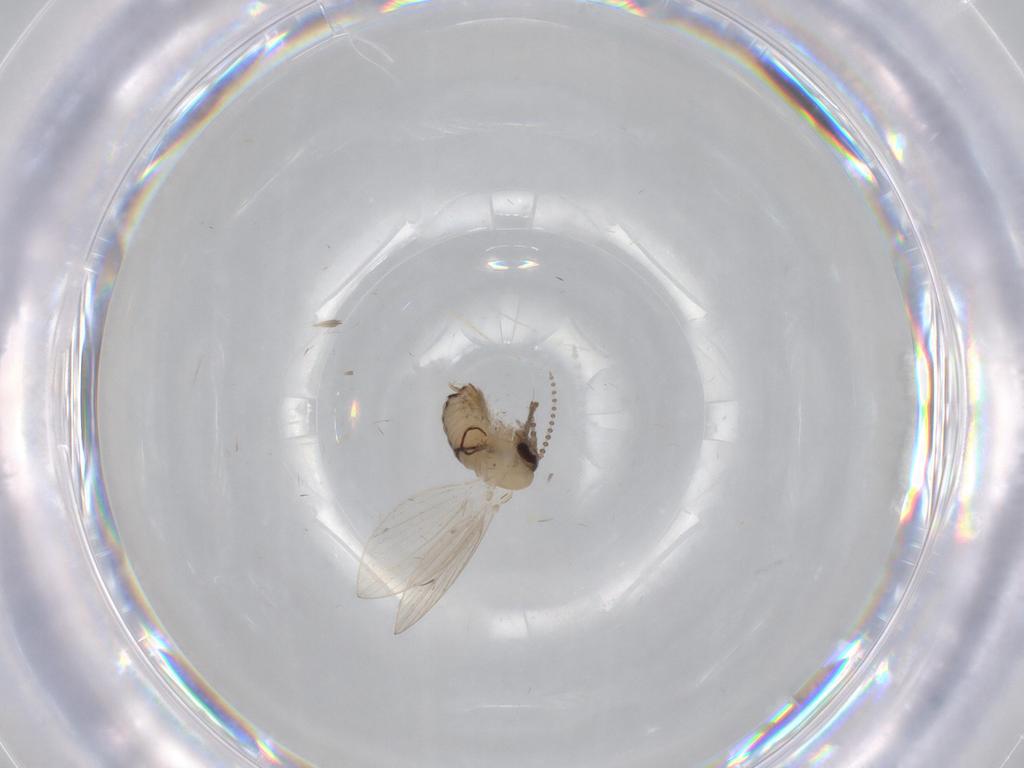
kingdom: Animalia
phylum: Arthropoda
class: Insecta
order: Diptera
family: Psychodidae
